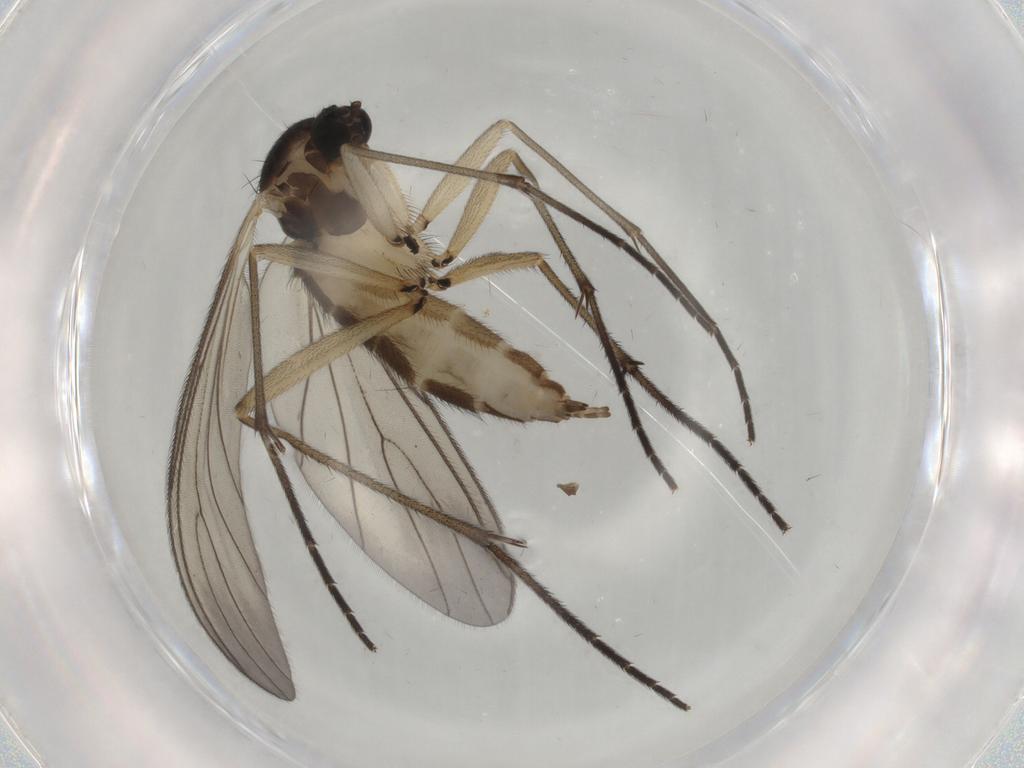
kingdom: Animalia
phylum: Arthropoda
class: Insecta
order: Diptera
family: Sciaridae
